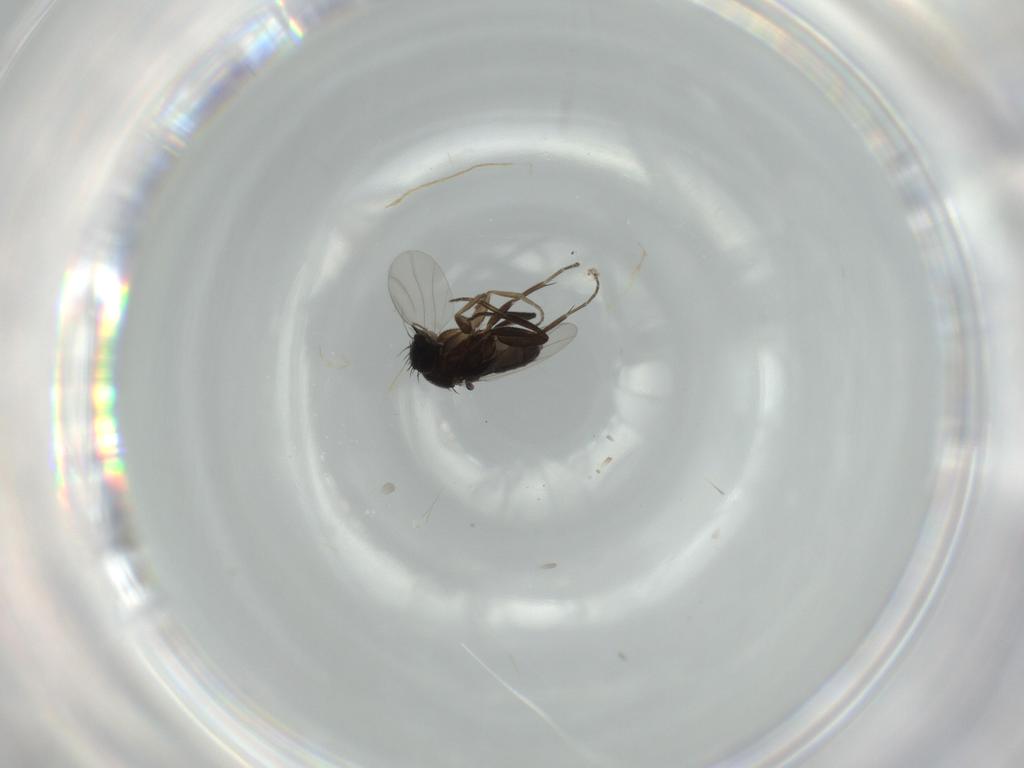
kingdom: Animalia
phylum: Arthropoda
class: Insecta
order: Diptera
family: Phoridae
